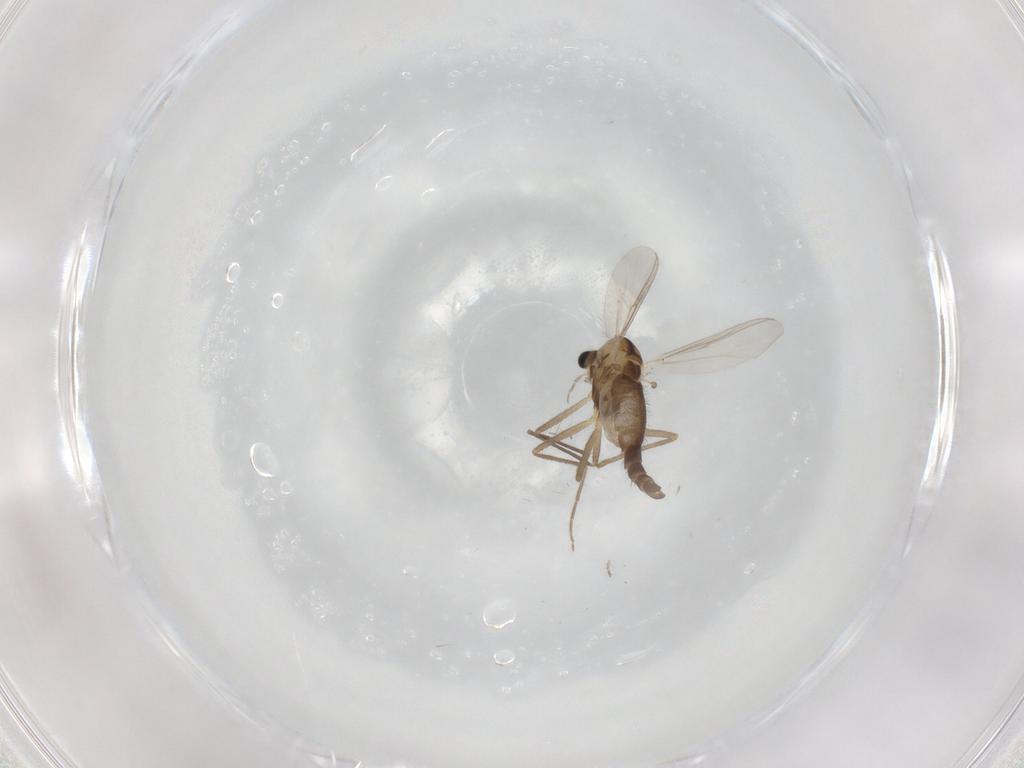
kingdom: Animalia
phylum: Arthropoda
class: Insecta
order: Diptera
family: Chironomidae
